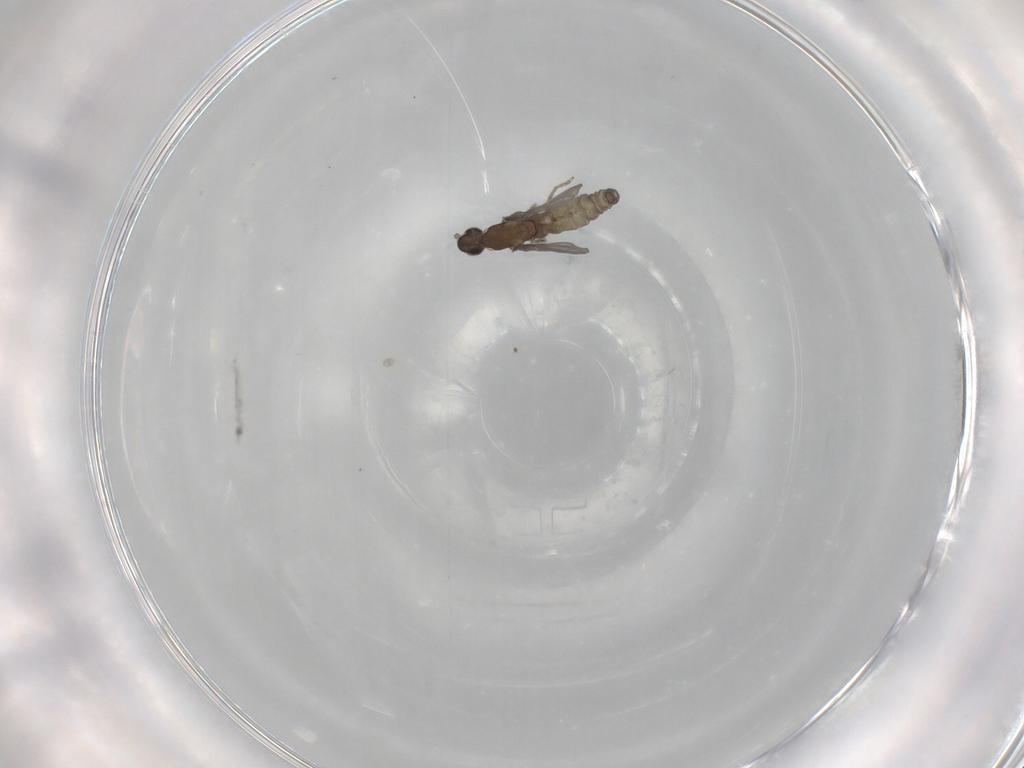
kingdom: Animalia
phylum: Arthropoda
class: Insecta
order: Diptera
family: Cecidomyiidae
